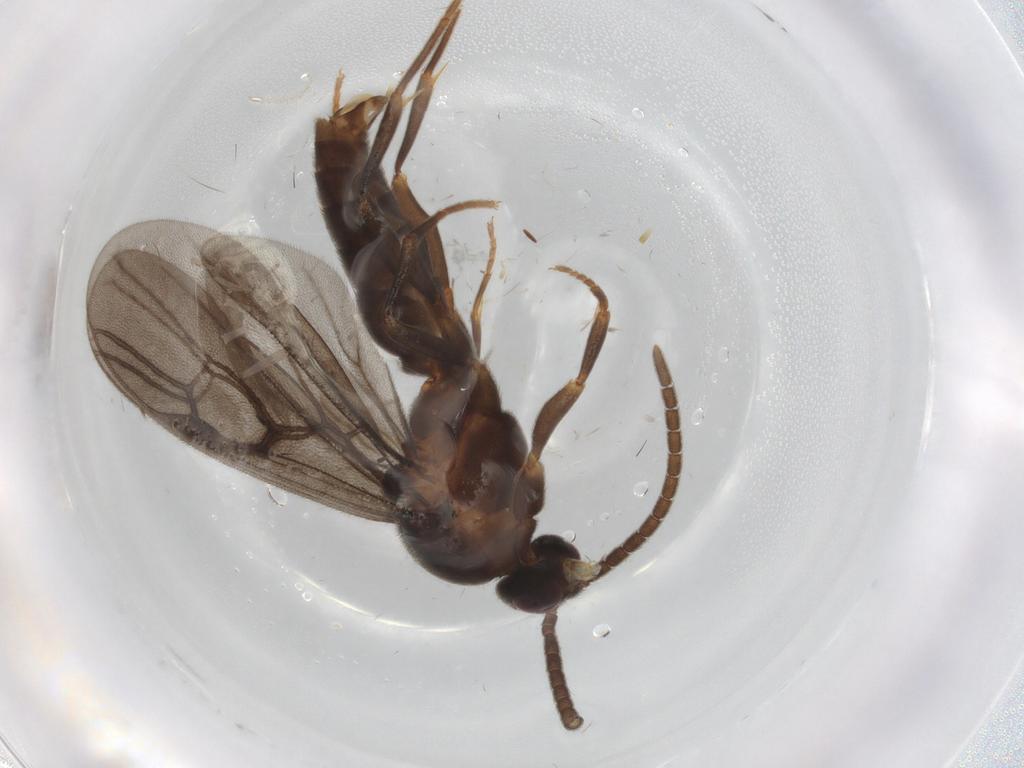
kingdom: Animalia
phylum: Arthropoda
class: Insecta
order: Hymenoptera
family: Formicidae
